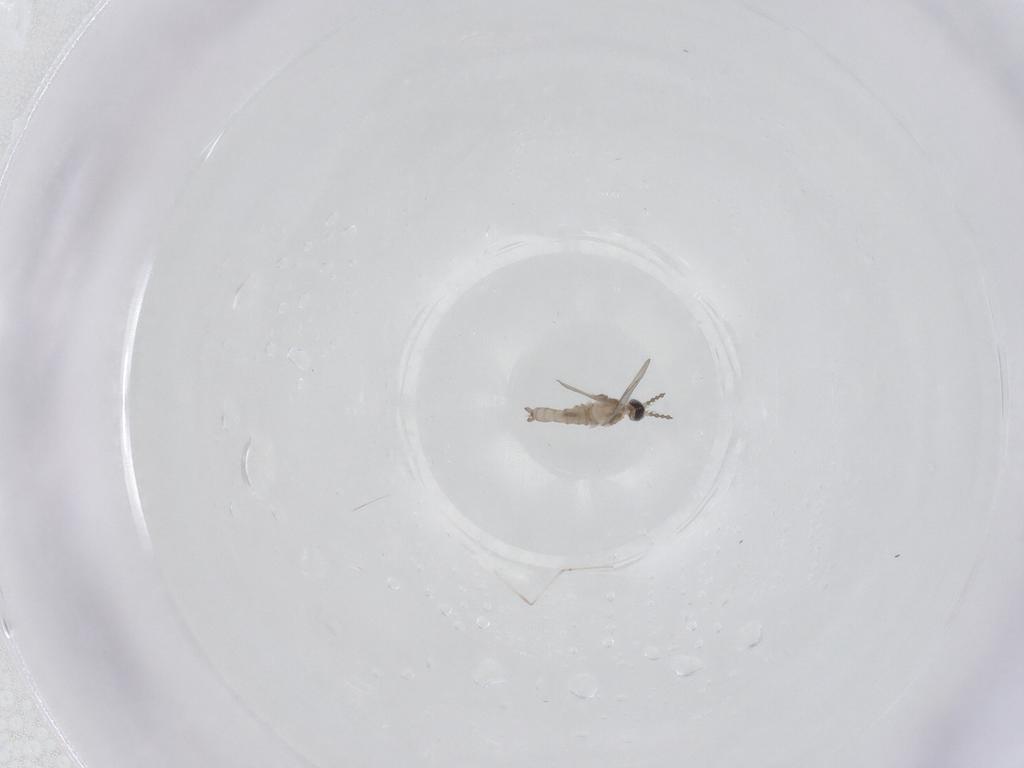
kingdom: Animalia
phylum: Arthropoda
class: Insecta
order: Diptera
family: Cecidomyiidae
